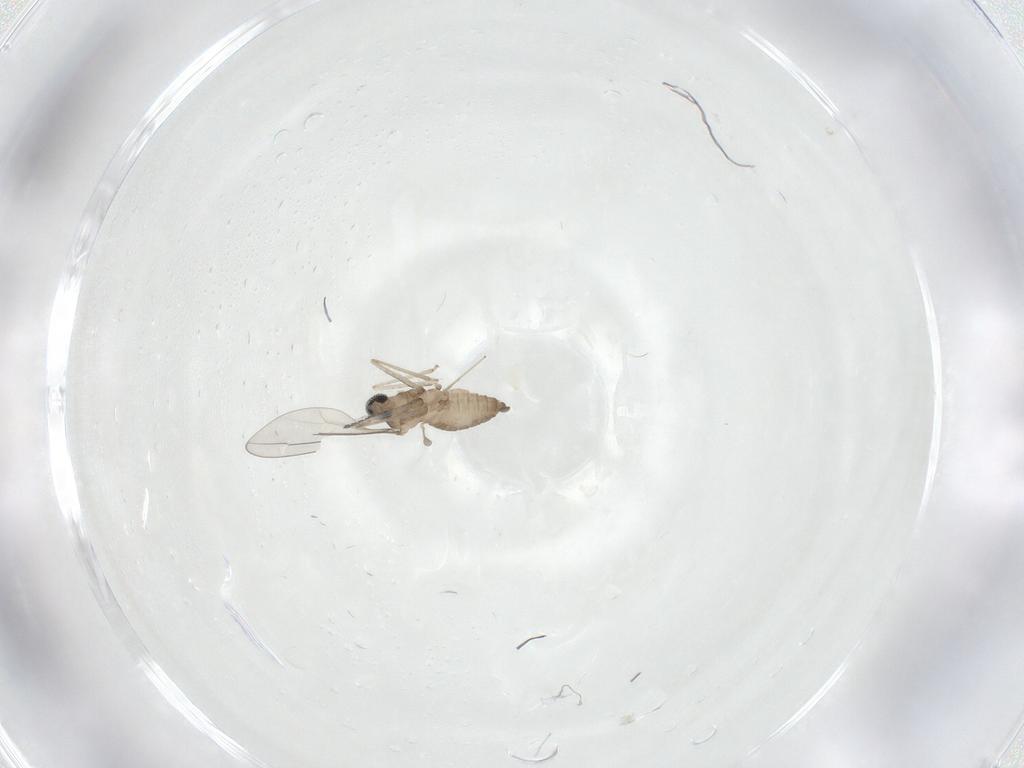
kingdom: Animalia
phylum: Arthropoda
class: Insecta
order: Diptera
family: Cecidomyiidae
